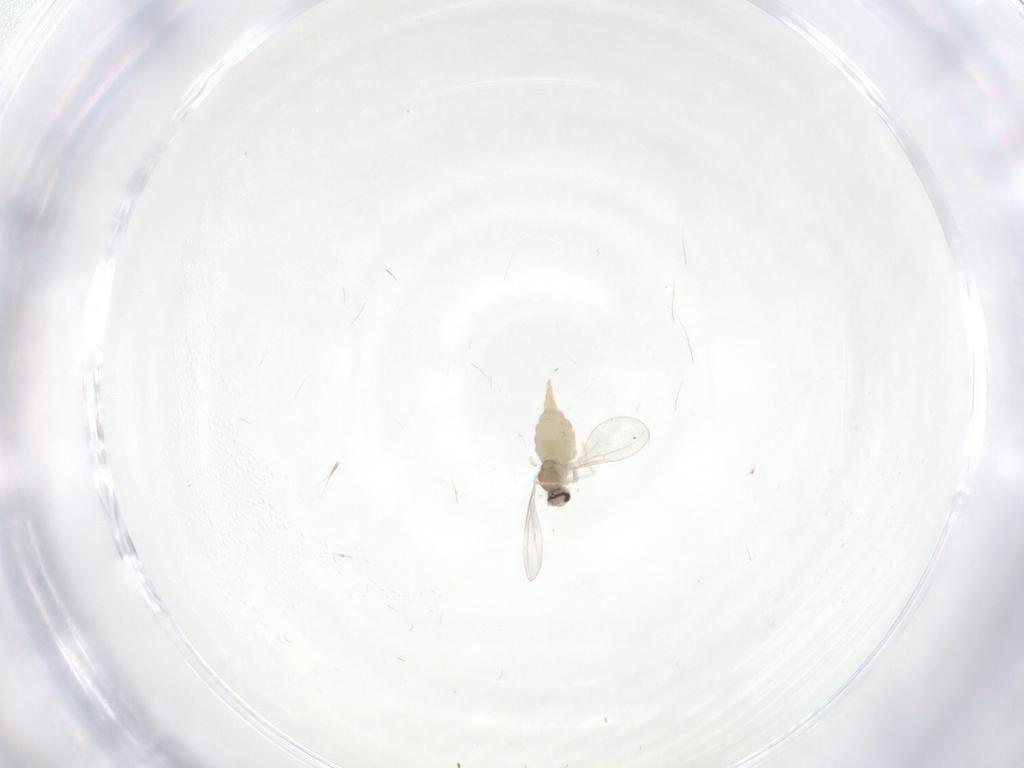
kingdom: Animalia
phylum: Arthropoda
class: Insecta
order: Diptera
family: Cecidomyiidae
